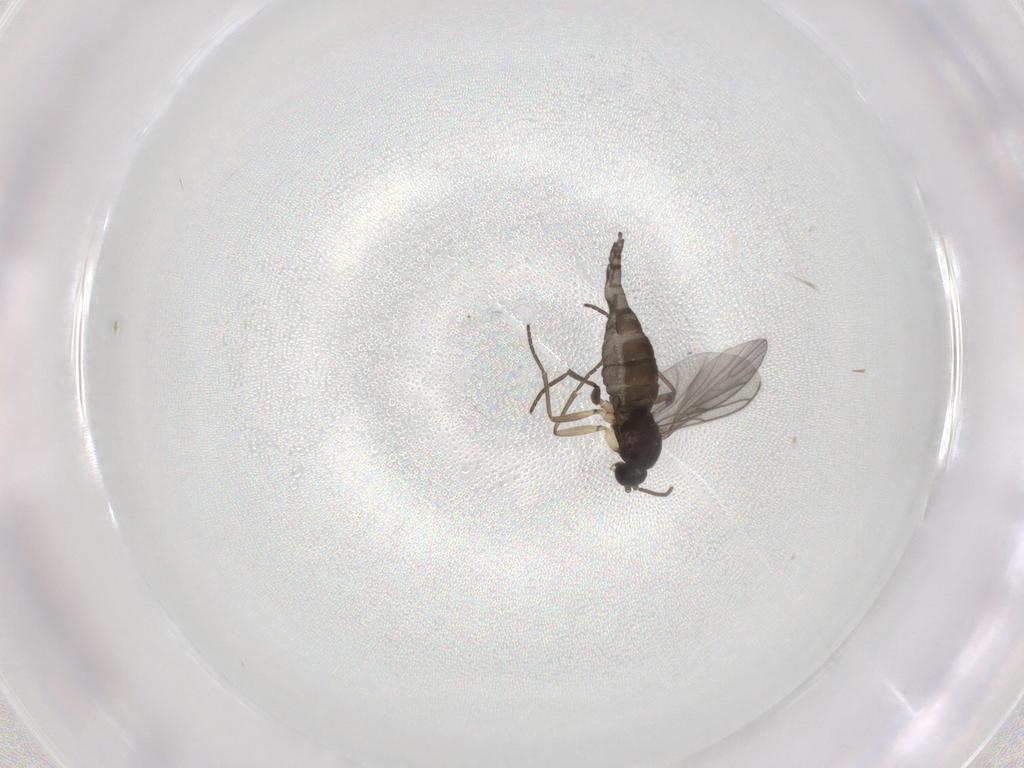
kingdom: Animalia
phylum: Arthropoda
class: Insecta
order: Diptera
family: Sciaridae
